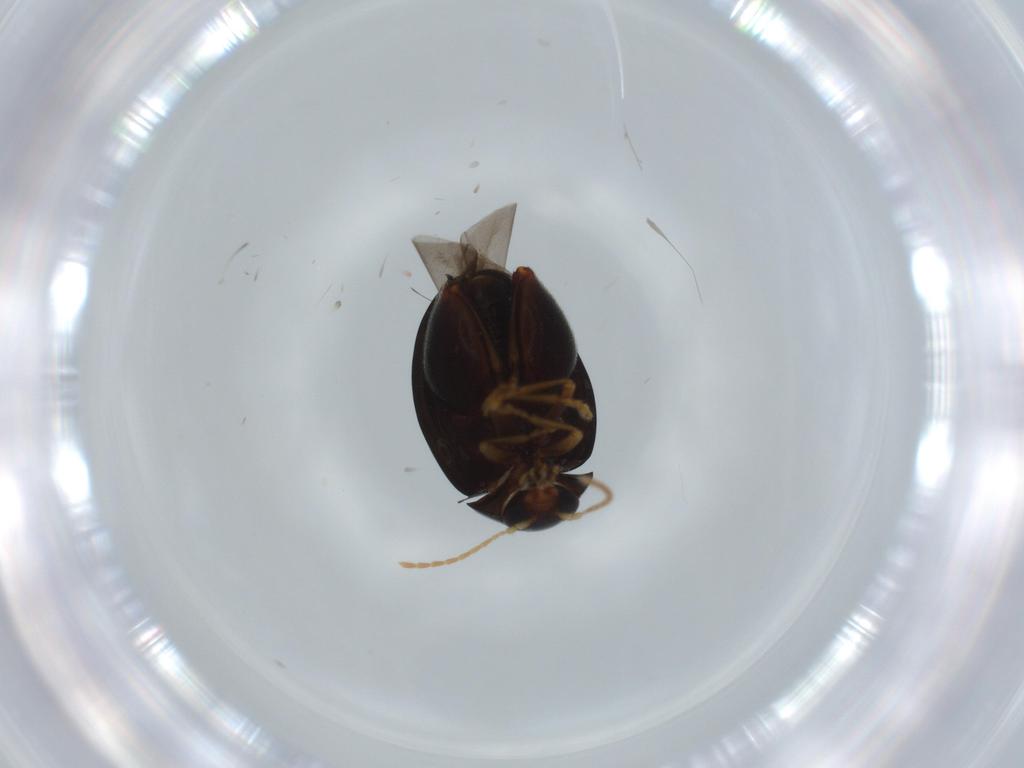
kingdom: Animalia
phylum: Arthropoda
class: Insecta
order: Coleoptera
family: Chrysomelidae
